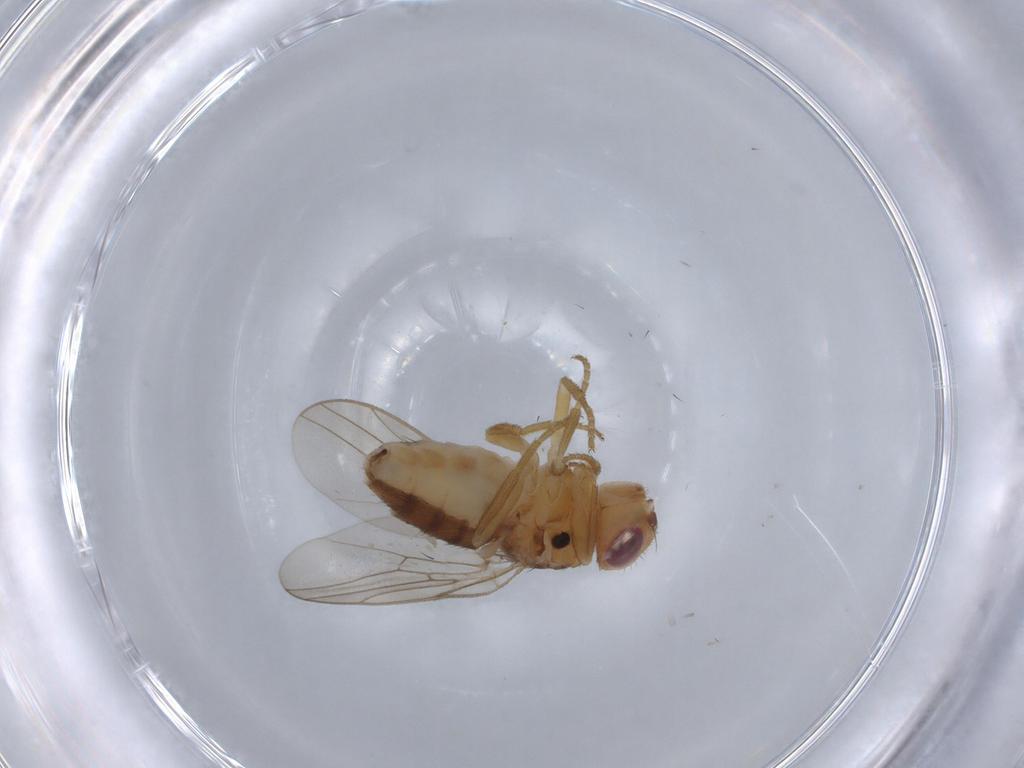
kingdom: Animalia
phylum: Arthropoda
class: Insecta
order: Diptera
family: Chloropidae
